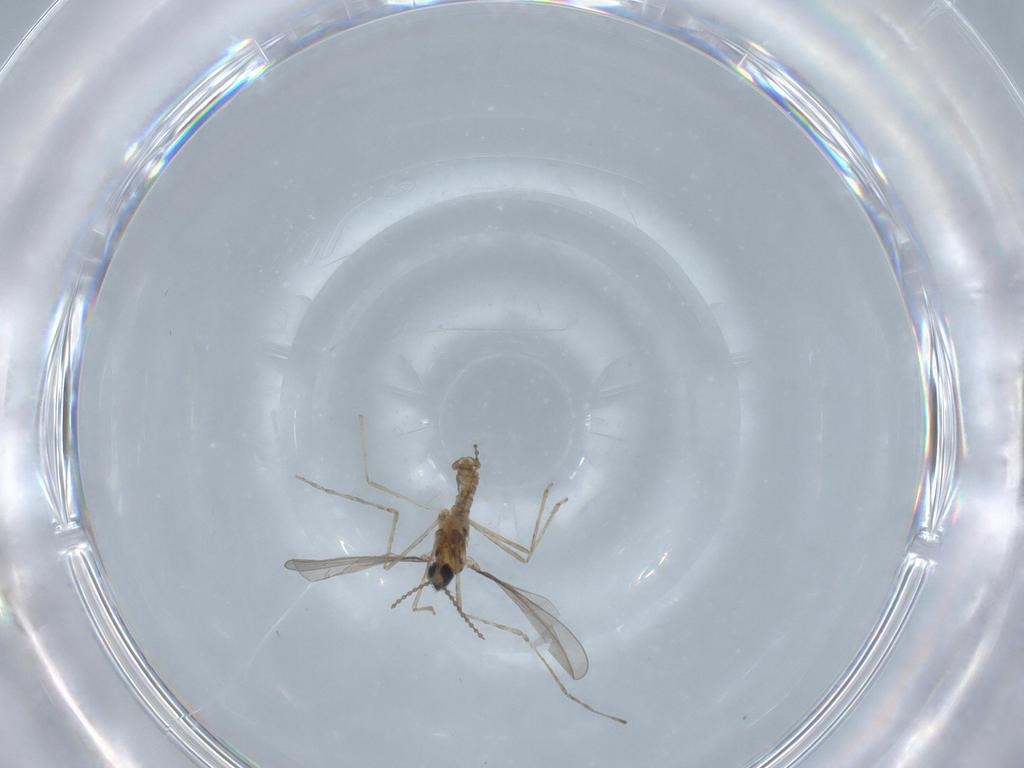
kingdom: Animalia
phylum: Arthropoda
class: Insecta
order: Diptera
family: Cecidomyiidae
